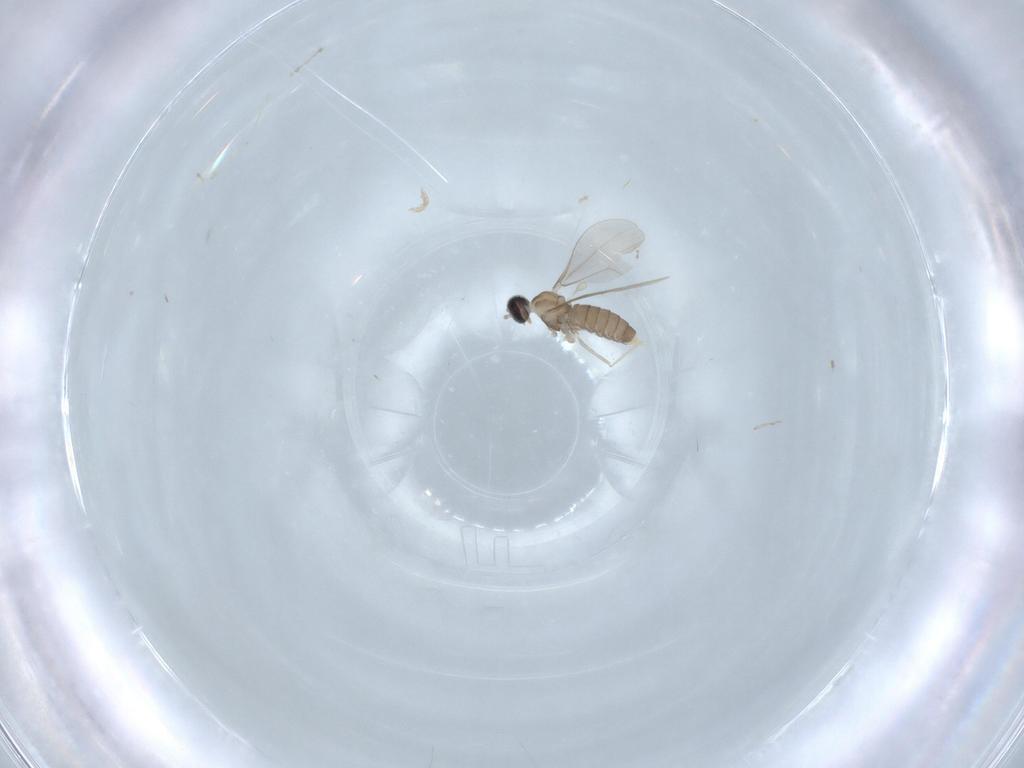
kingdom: Animalia
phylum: Arthropoda
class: Insecta
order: Diptera
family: Cecidomyiidae
